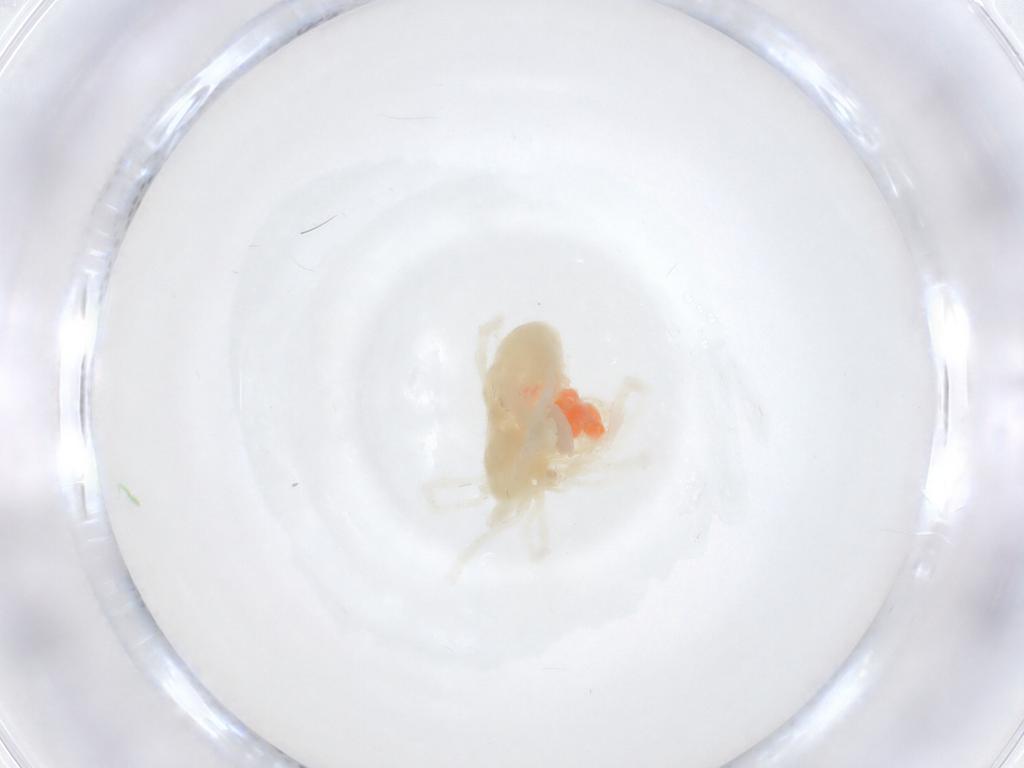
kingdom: Animalia
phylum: Arthropoda
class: Arachnida
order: Trombidiformes
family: Teneriffiidae
